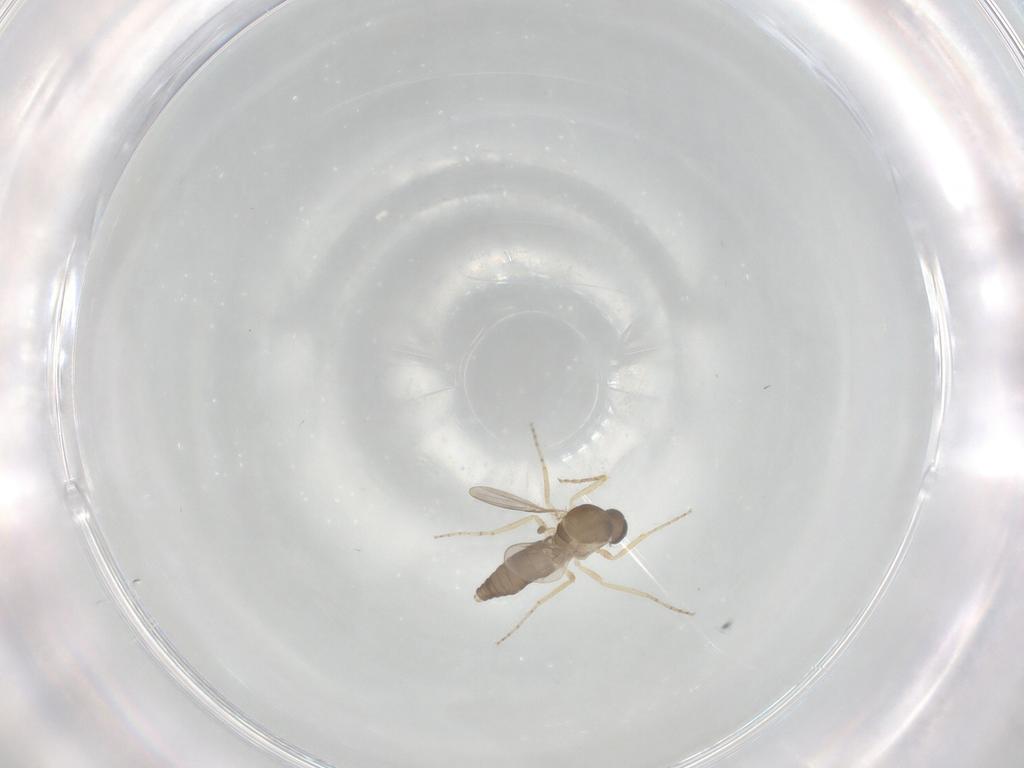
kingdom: Animalia
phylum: Arthropoda
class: Insecta
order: Diptera
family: Ceratopogonidae
